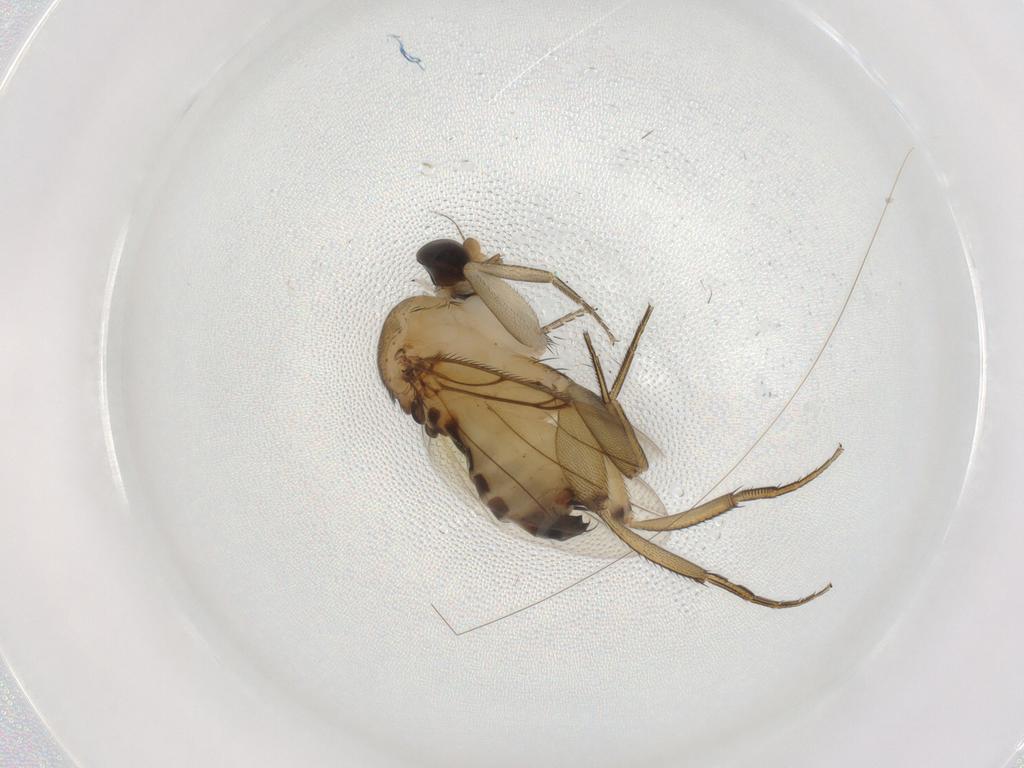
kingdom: Animalia
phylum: Arthropoda
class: Insecta
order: Diptera
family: Phoridae
